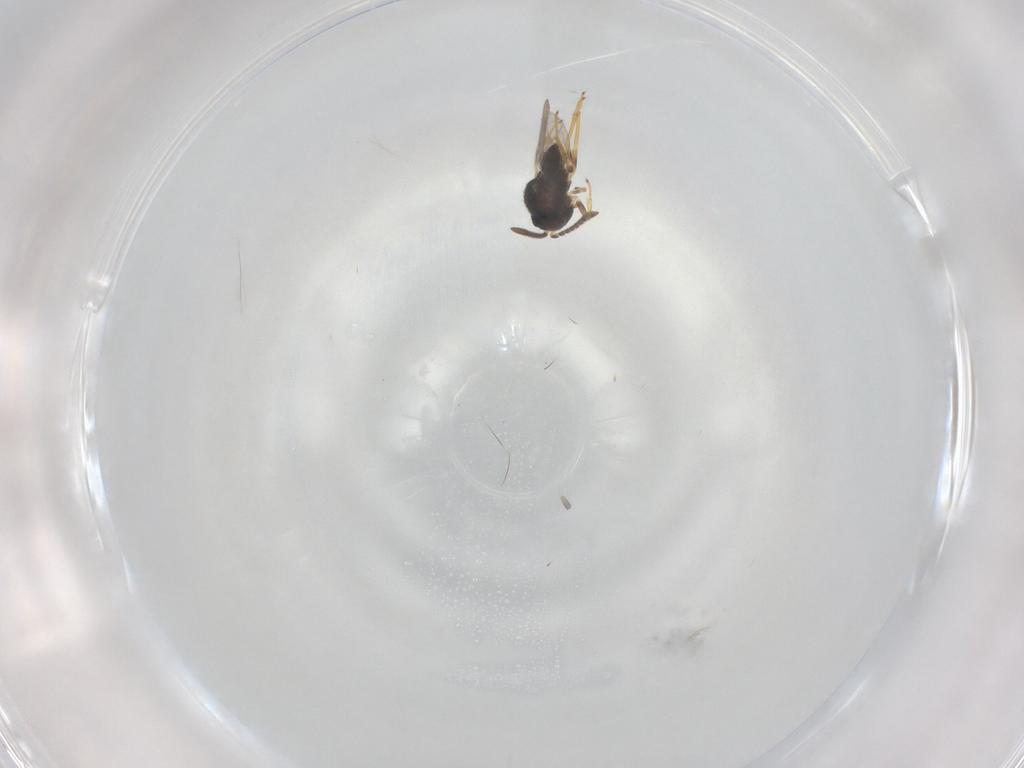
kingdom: Animalia
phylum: Arthropoda
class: Insecta
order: Hymenoptera
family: Encyrtidae
